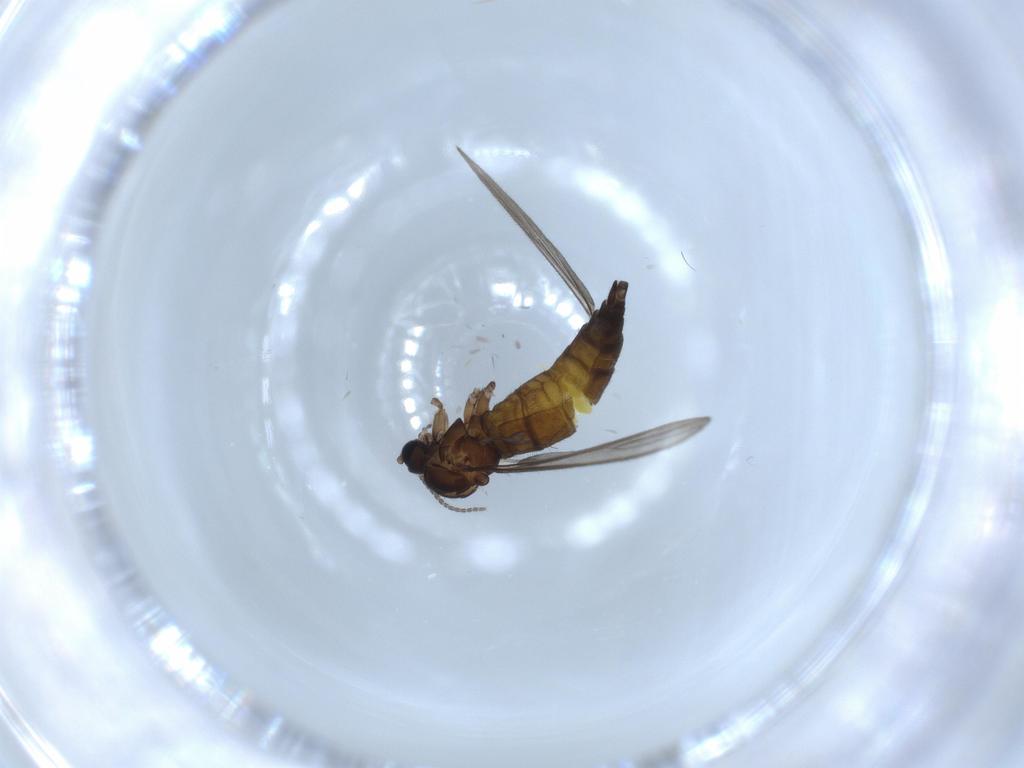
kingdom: Animalia
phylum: Arthropoda
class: Insecta
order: Diptera
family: Sciaridae
